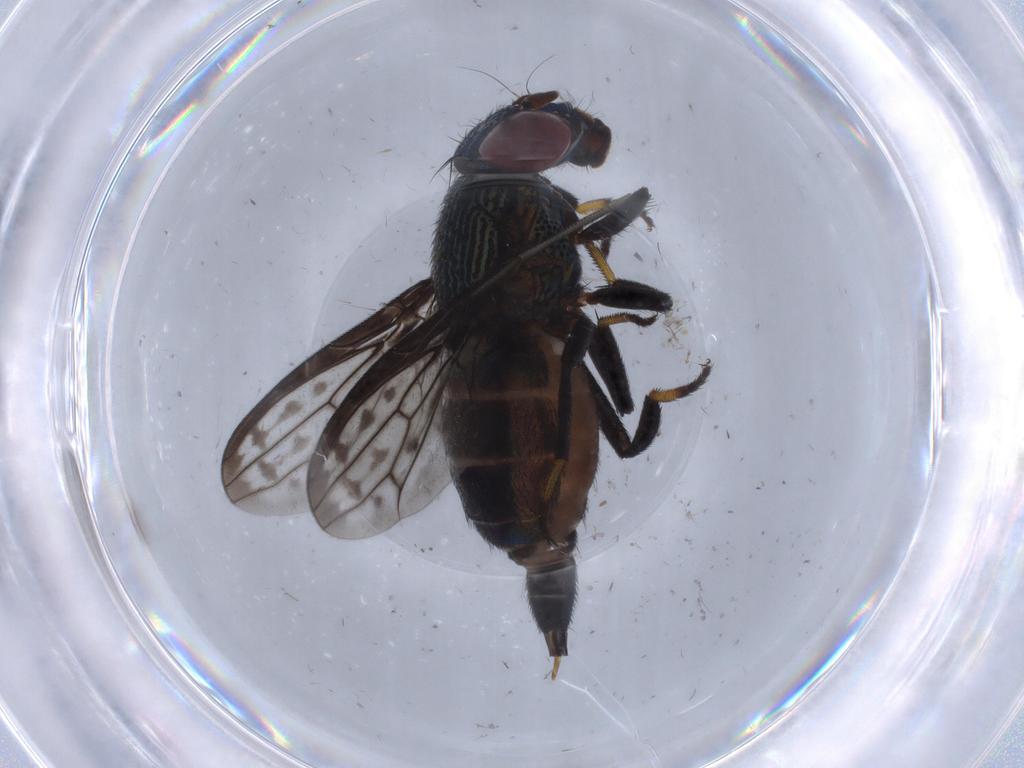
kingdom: Animalia
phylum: Arthropoda
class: Insecta
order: Diptera
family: Chironomidae
